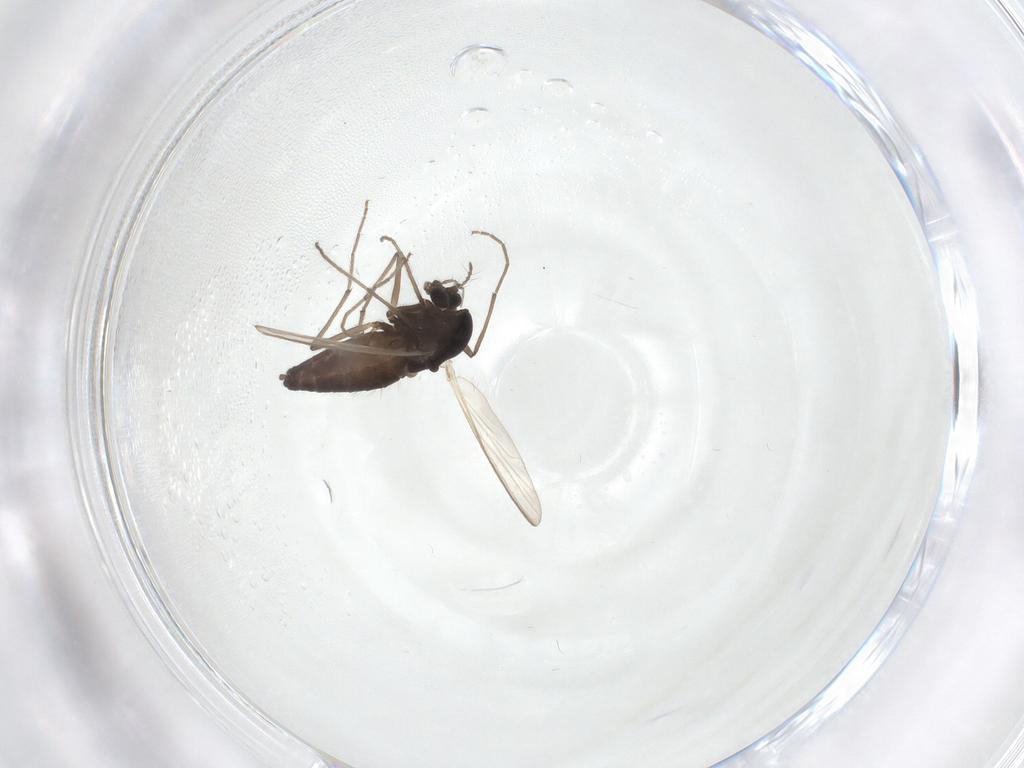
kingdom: Animalia
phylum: Arthropoda
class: Insecta
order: Diptera
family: Chironomidae
